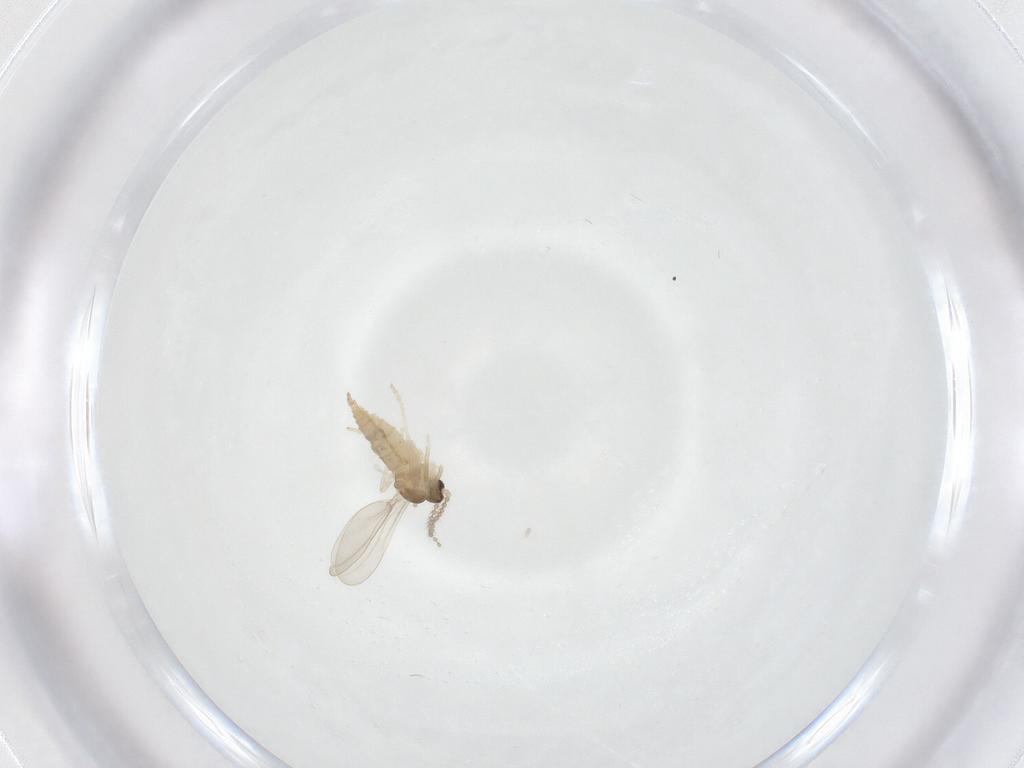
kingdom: Animalia
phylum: Arthropoda
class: Insecta
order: Diptera
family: Cecidomyiidae
